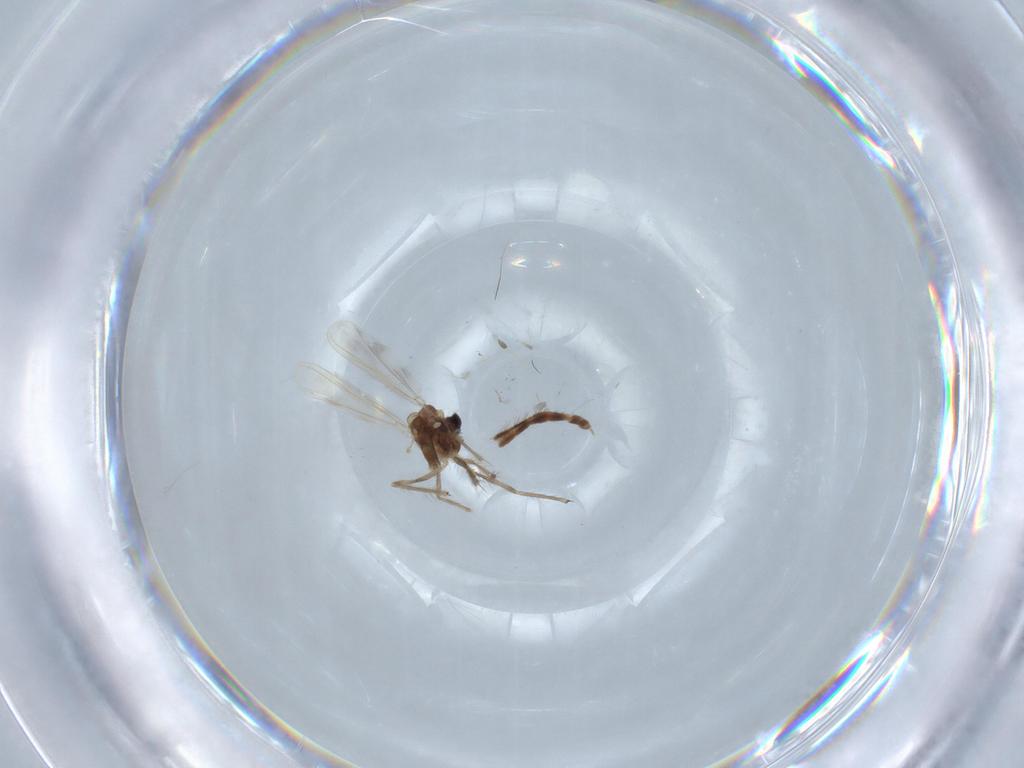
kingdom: Animalia
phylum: Arthropoda
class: Insecta
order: Diptera
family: Chironomidae
